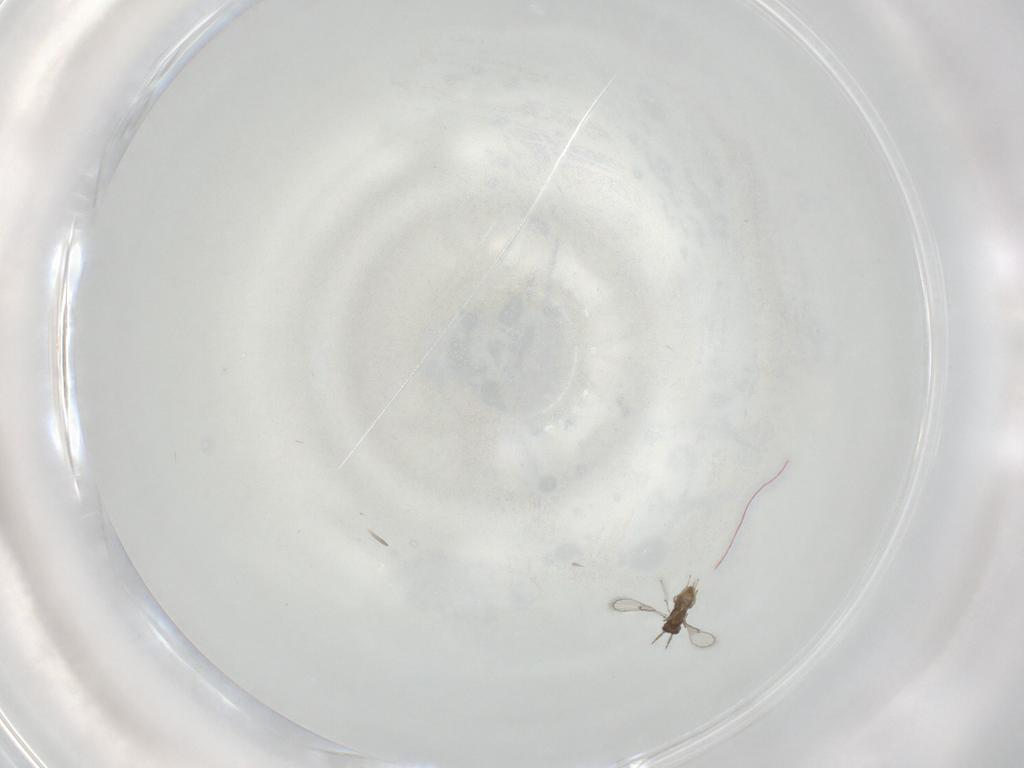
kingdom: Animalia
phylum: Arthropoda
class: Insecta
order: Hymenoptera
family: Trichogrammatidae
